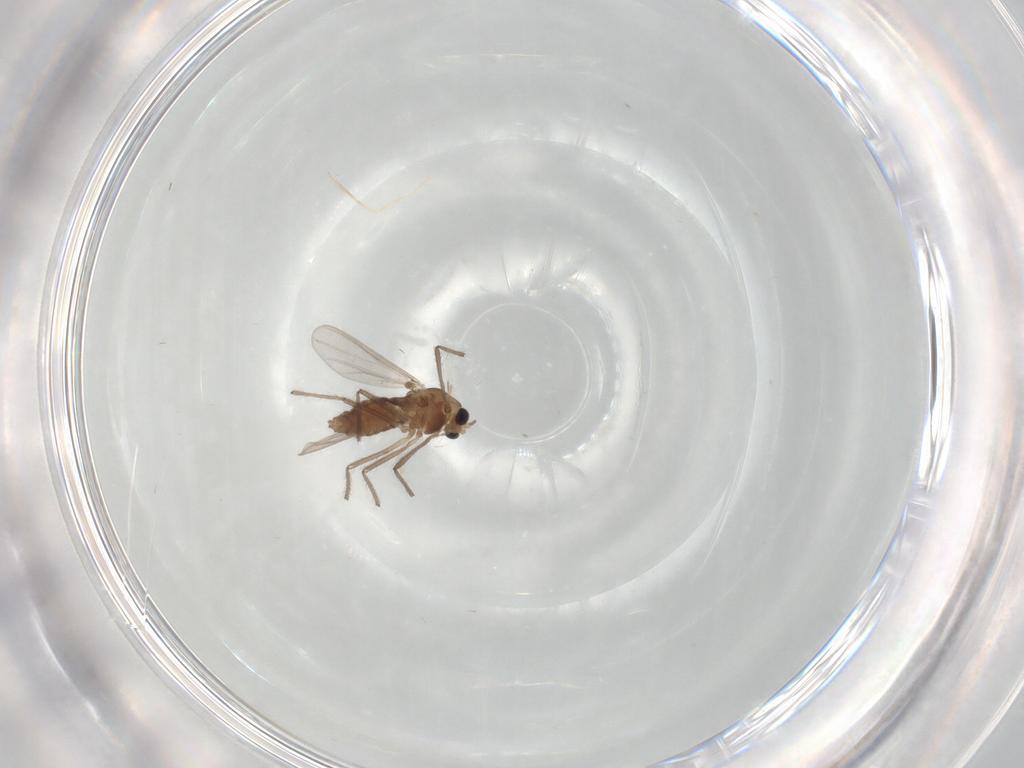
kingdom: Animalia
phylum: Arthropoda
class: Insecta
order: Diptera
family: Chironomidae
